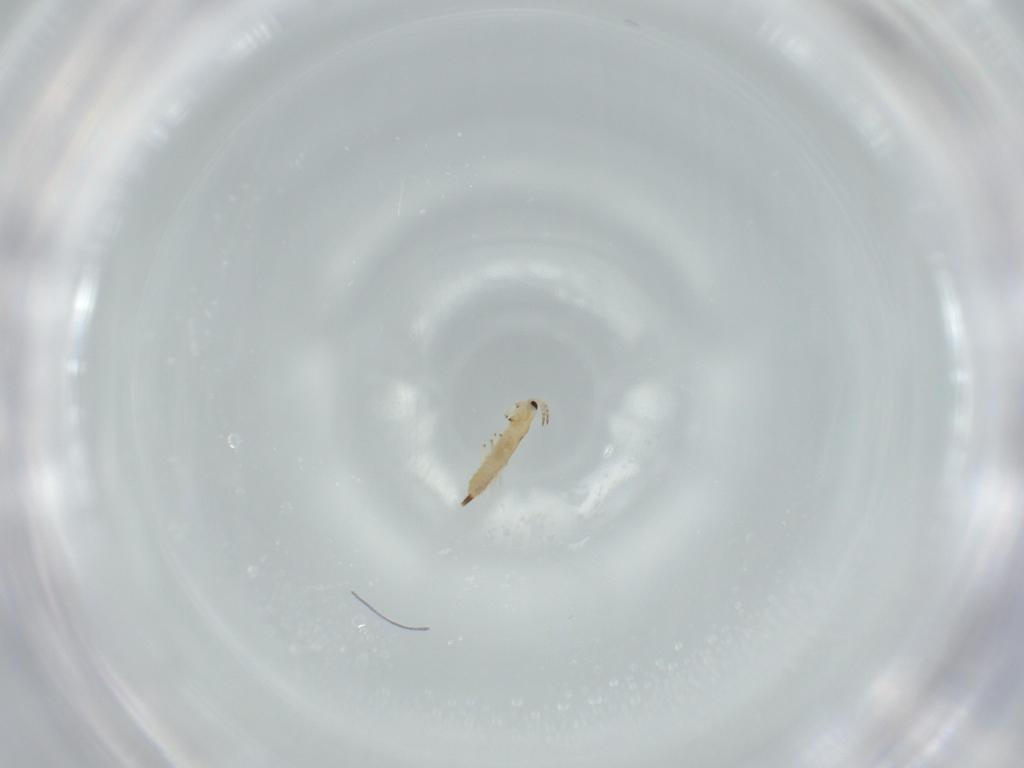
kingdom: Animalia
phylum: Arthropoda
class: Insecta
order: Thysanoptera
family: Phlaeothripidae
